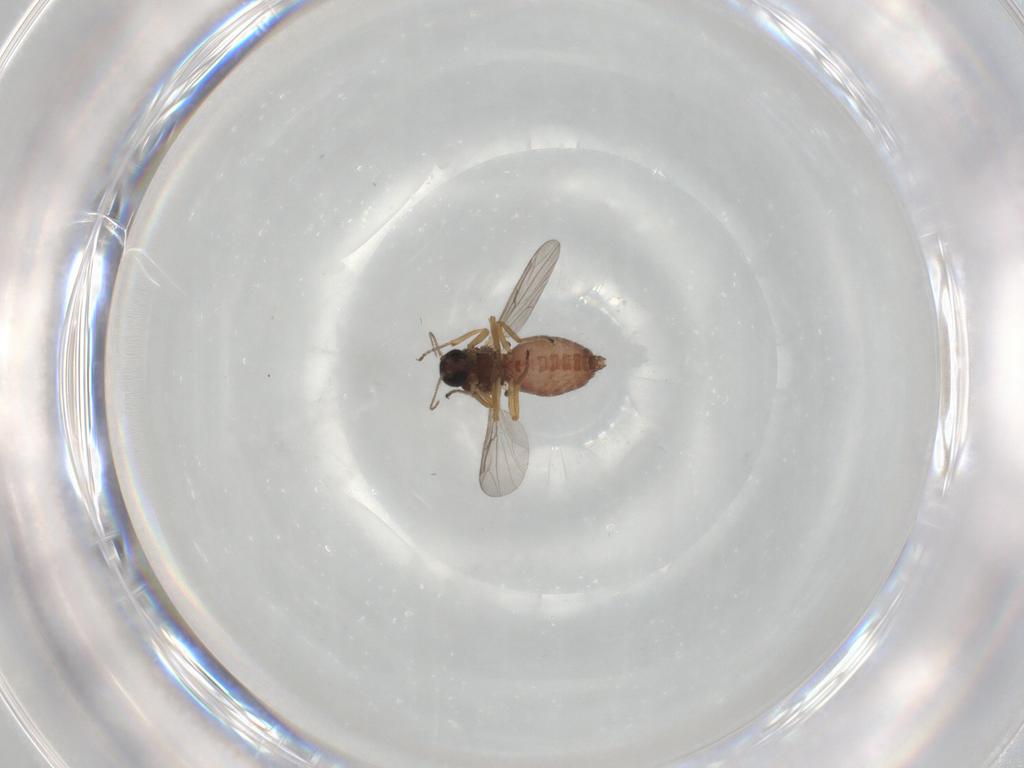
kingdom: Animalia
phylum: Arthropoda
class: Insecta
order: Diptera
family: Ceratopogonidae
